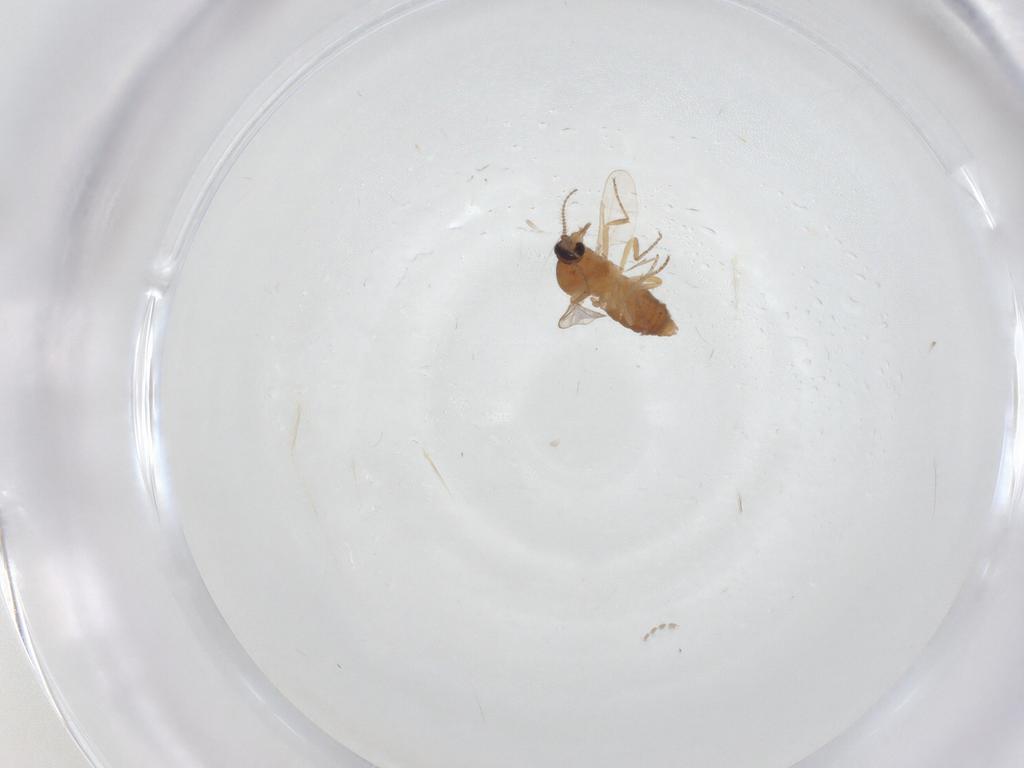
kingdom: Animalia
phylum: Arthropoda
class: Insecta
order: Diptera
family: Ceratopogonidae
